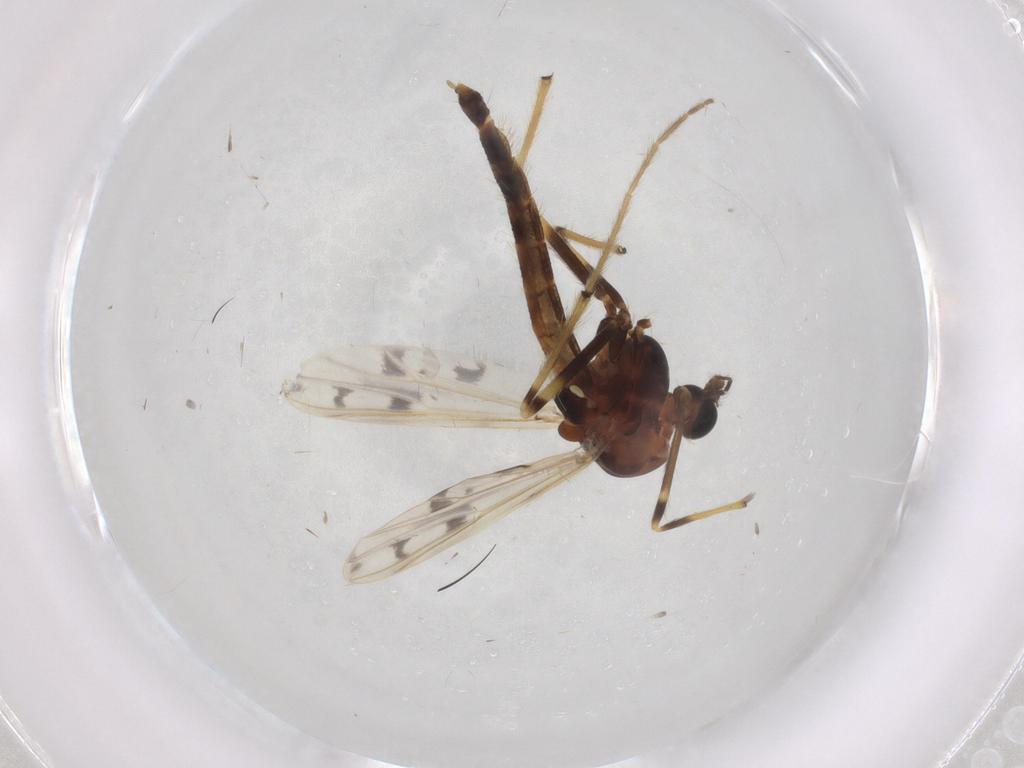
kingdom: Animalia
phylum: Arthropoda
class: Insecta
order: Diptera
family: Chironomidae
